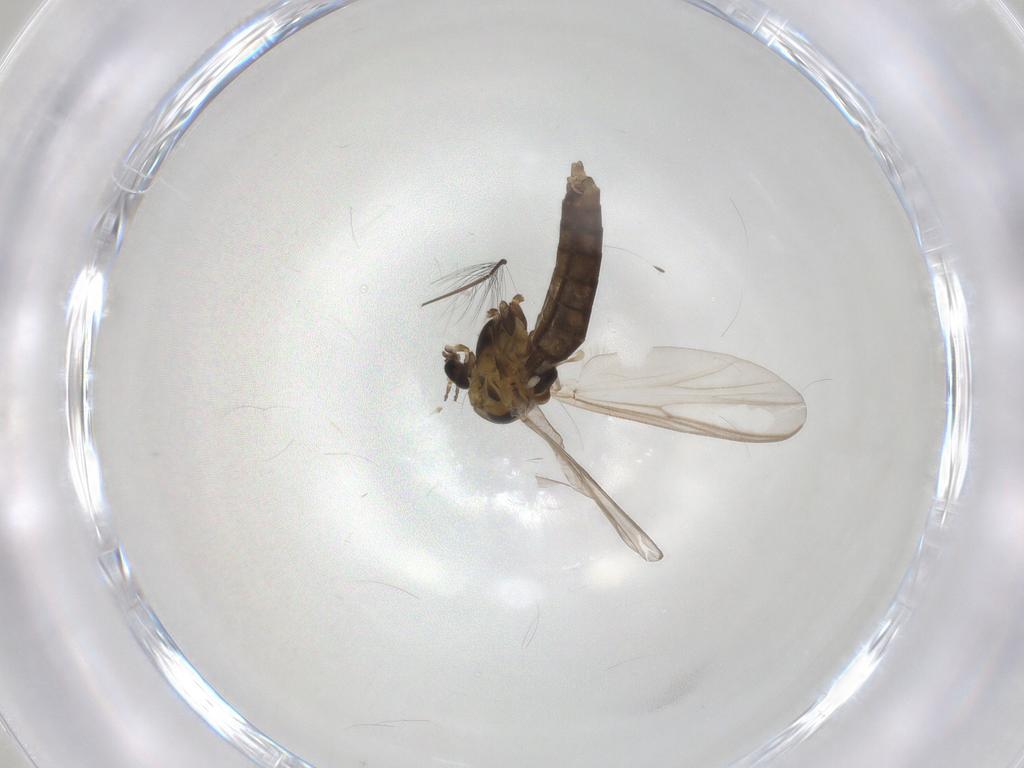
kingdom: Animalia
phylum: Arthropoda
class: Insecta
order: Diptera
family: Chironomidae
